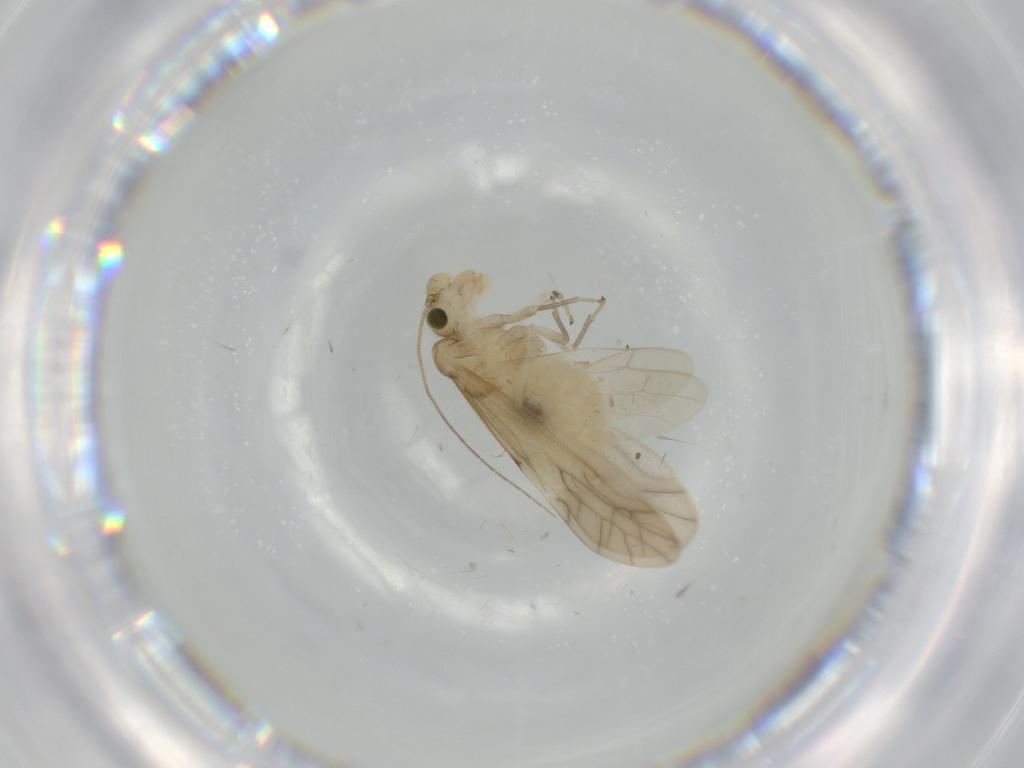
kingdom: Animalia
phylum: Arthropoda
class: Insecta
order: Psocodea
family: Ectopsocidae
